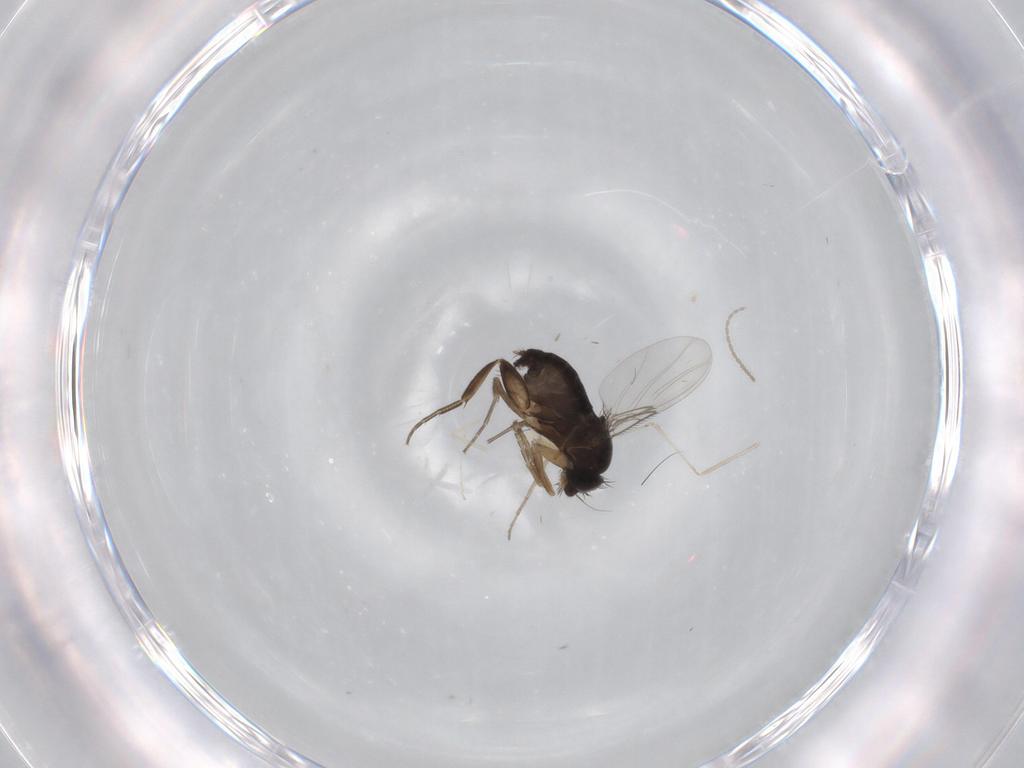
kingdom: Animalia
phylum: Arthropoda
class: Insecta
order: Diptera
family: Phoridae
